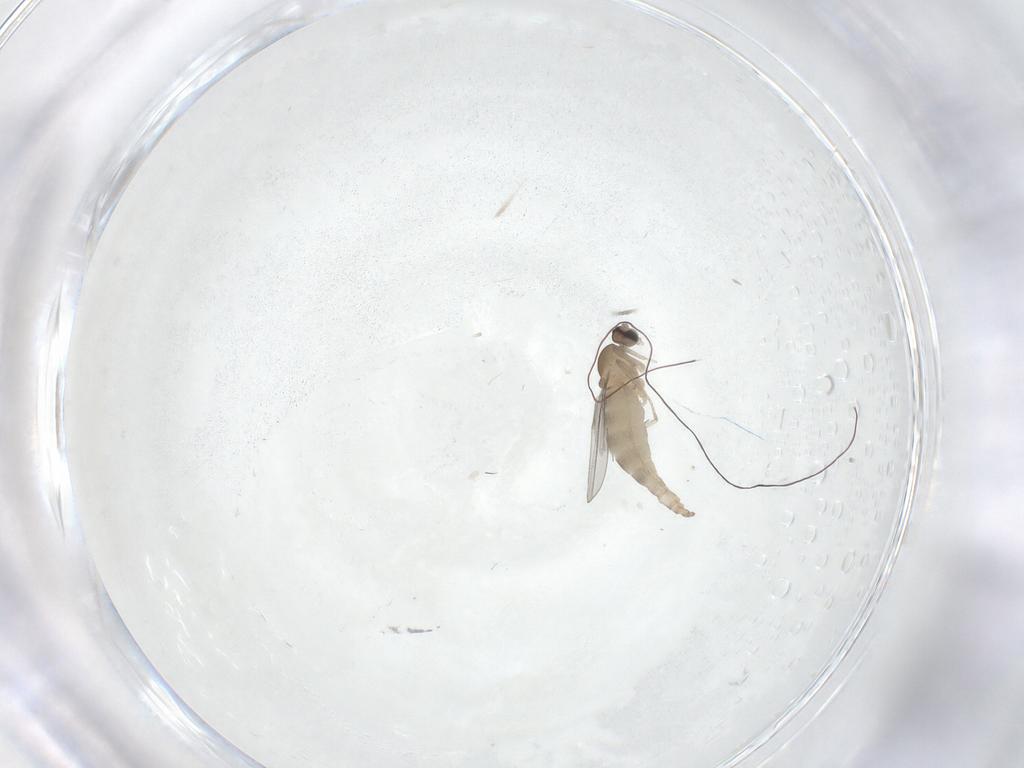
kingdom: Animalia
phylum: Arthropoda
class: Insecta
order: Diptera
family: Cecidomyiidae
